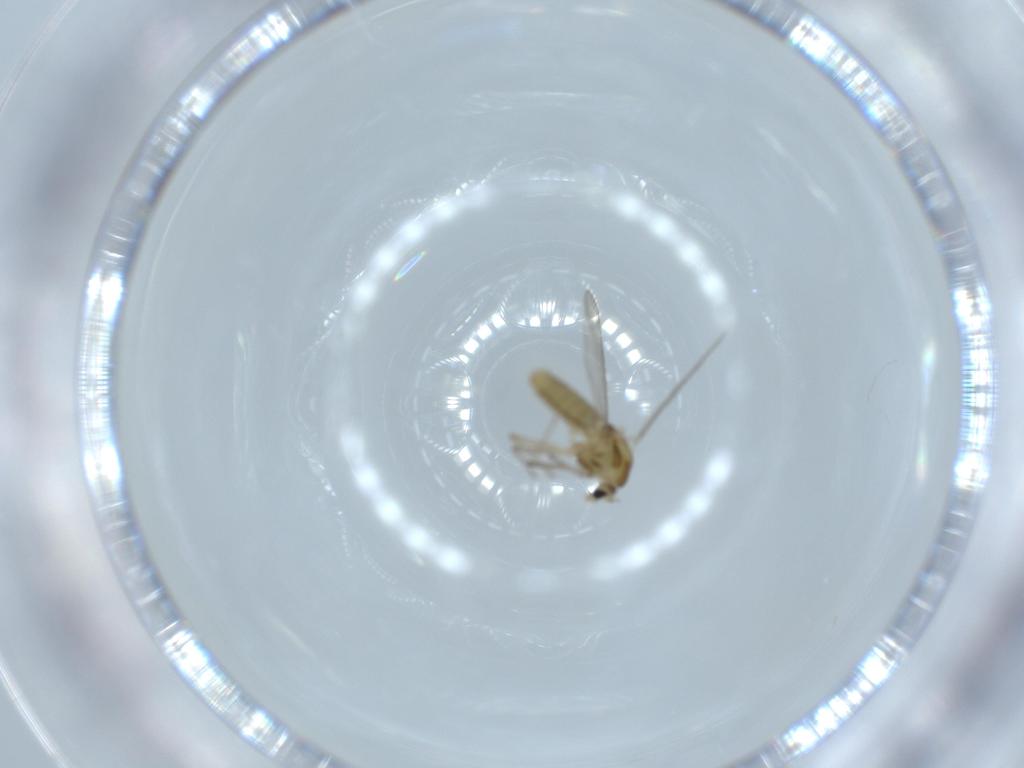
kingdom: Animalia
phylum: Arthropoda
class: Insecta
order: Diptera
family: Chironomidae
